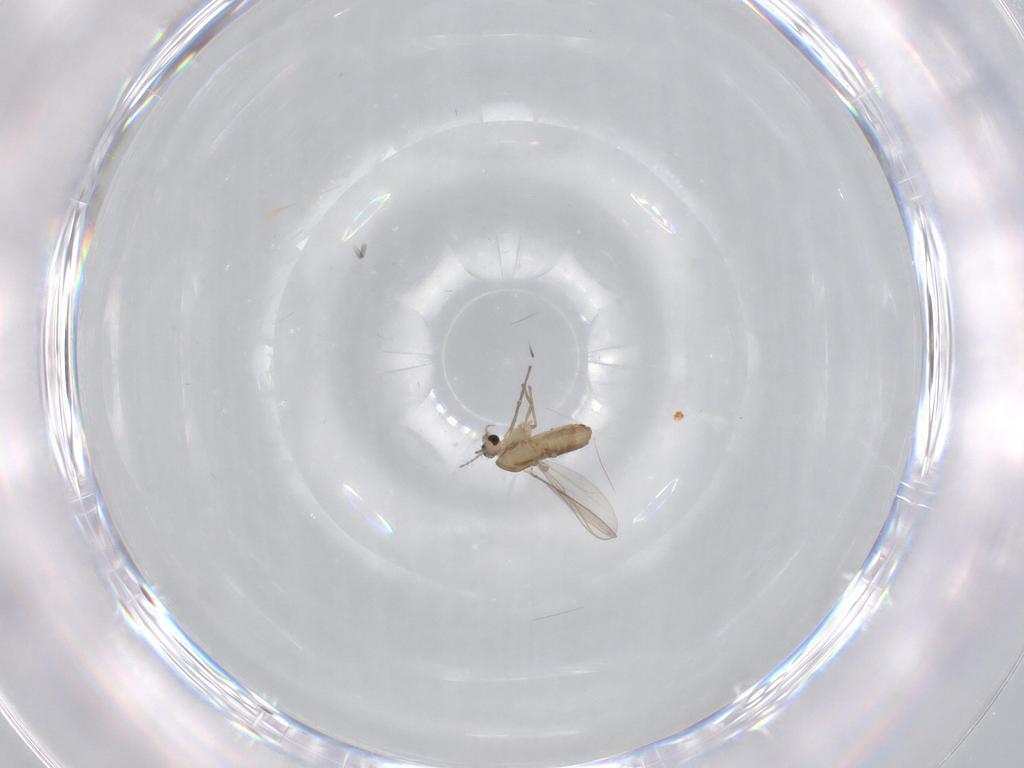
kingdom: Animalia
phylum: Arthropoda
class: Insecta
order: Diptera
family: Chironomidae
